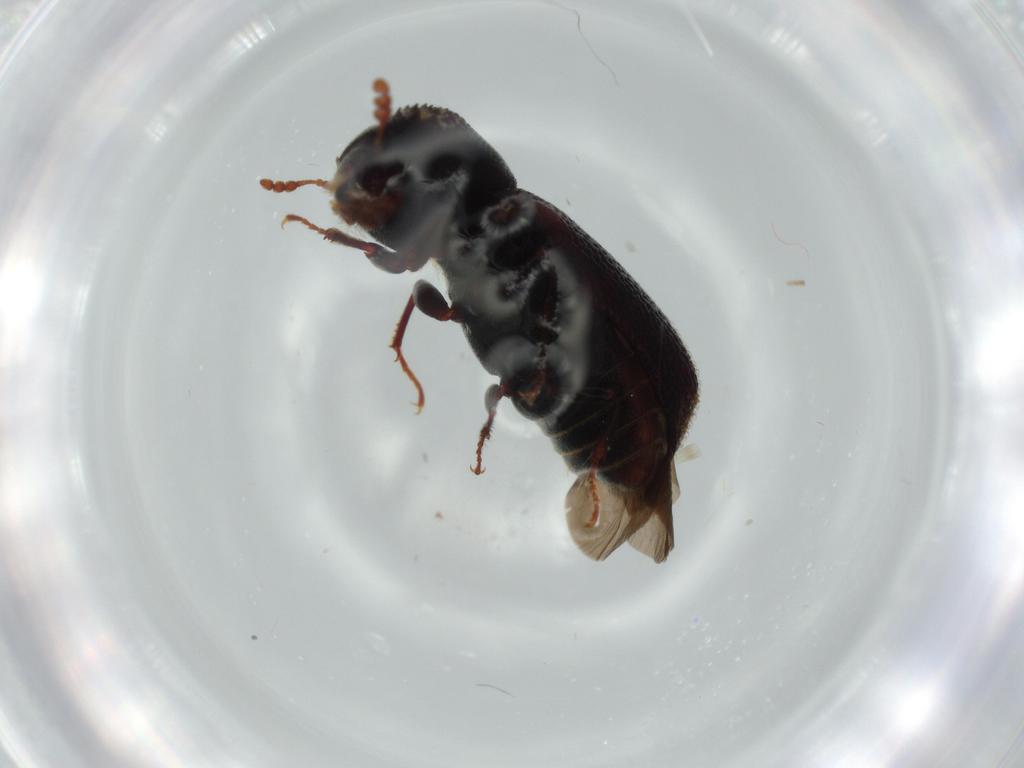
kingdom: Animalia
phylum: Arthropoda
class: Insecta
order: Coleoptera
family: Bostrichidae
